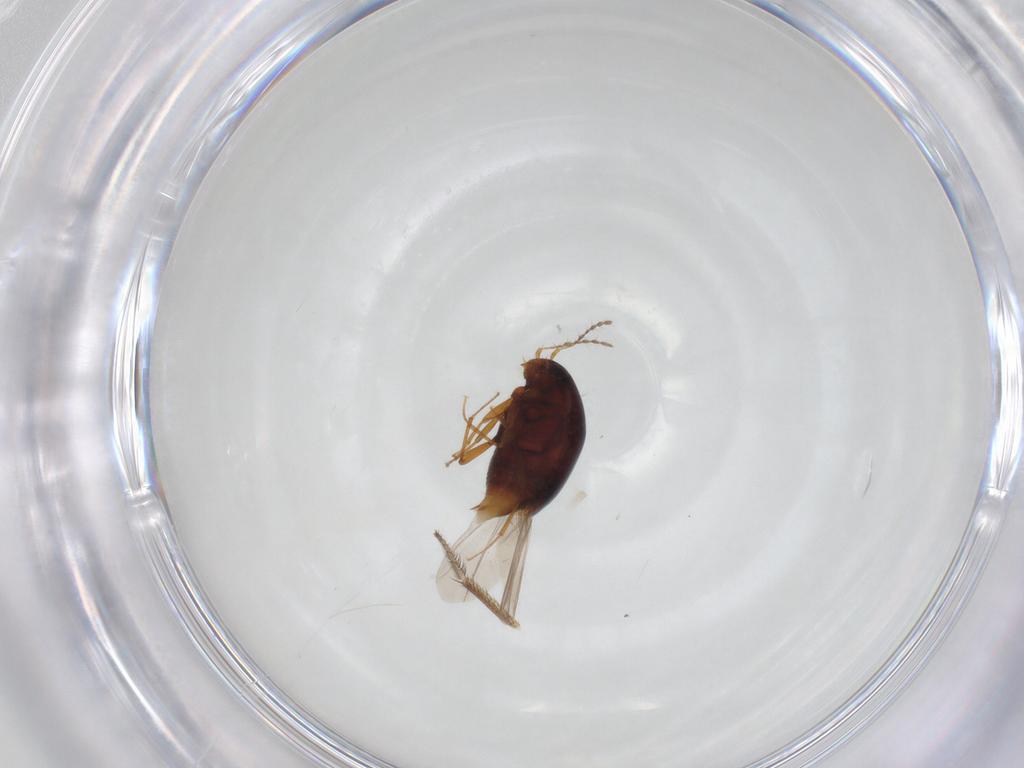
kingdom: Animalia
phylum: Arthropoda
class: Insecta
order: Coleoptera
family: Staphylinidae
